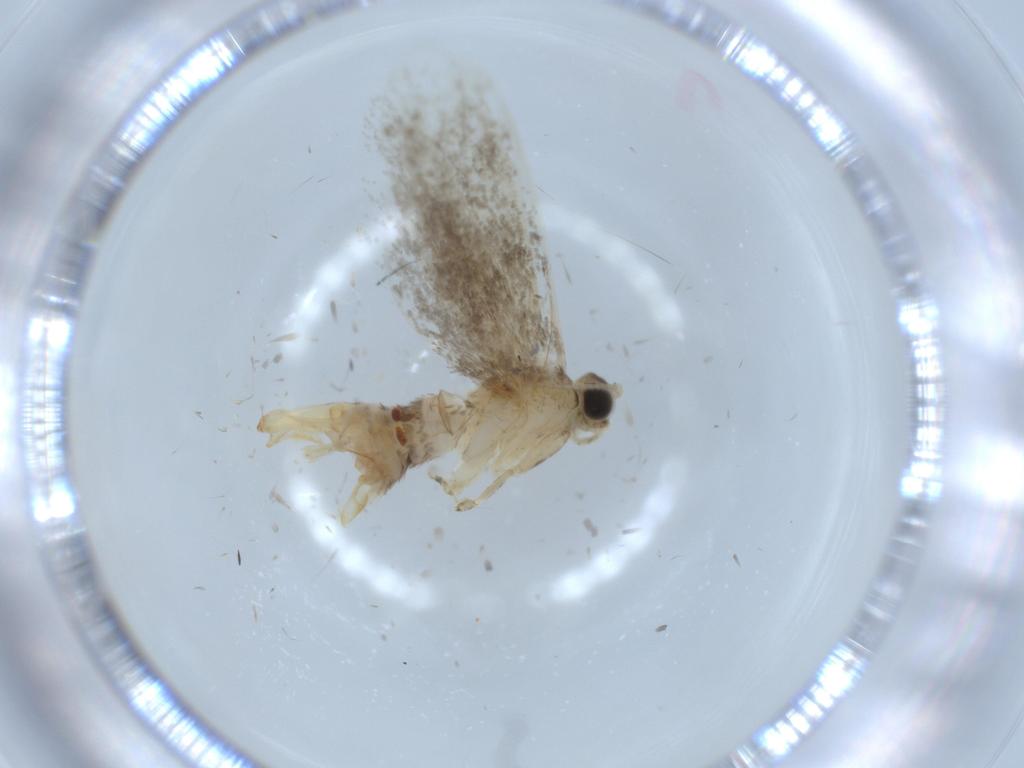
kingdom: Animalia
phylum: Arthropoda
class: Insecta
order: Lepidoptera
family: Tineidae
